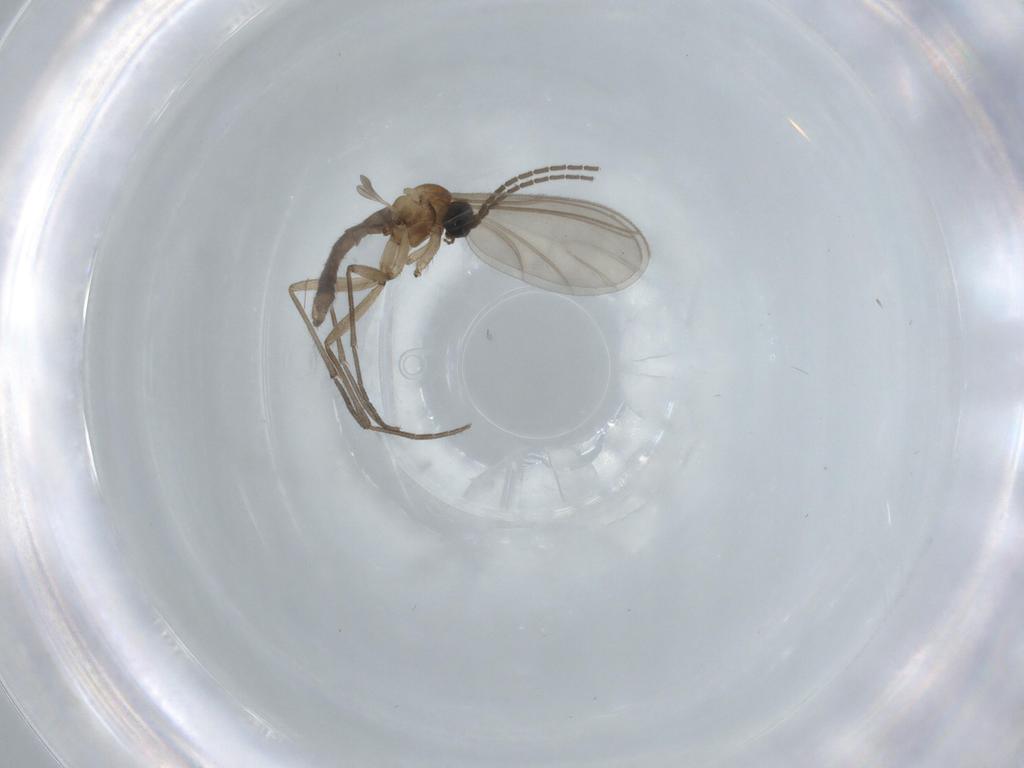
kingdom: Animalia
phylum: Arthropoda
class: Insecta
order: Diptera
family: Sciaridae
